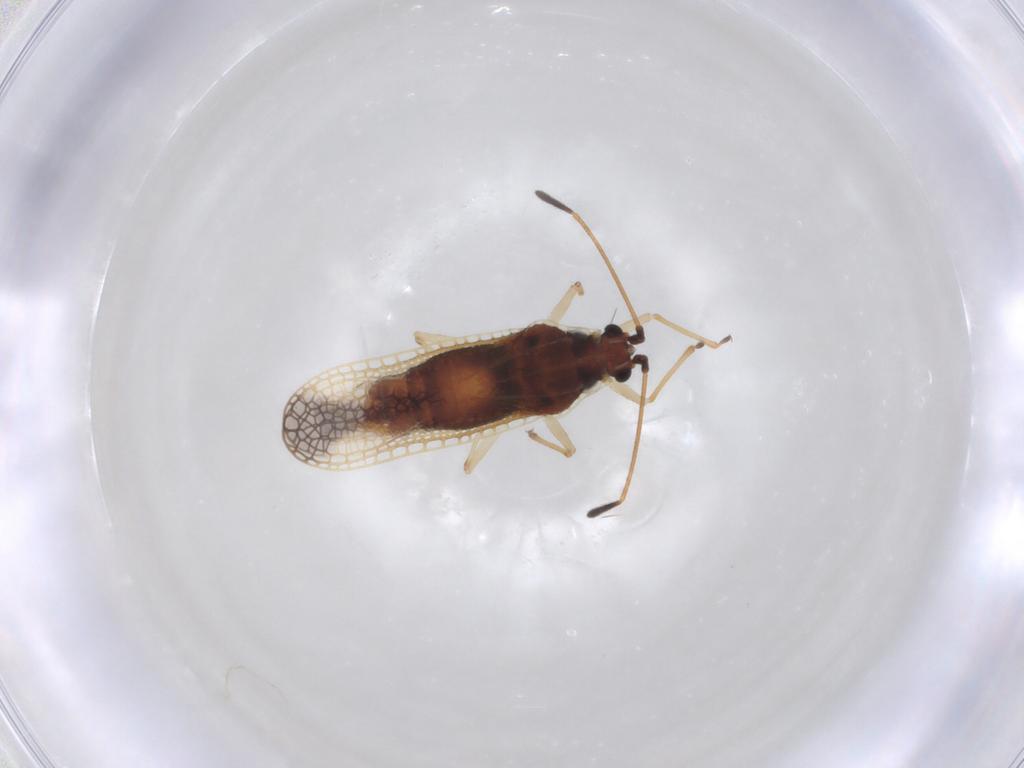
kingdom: Animalia
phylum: Arthropoda
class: Insecta
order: Hemiptera
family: Tingidae
